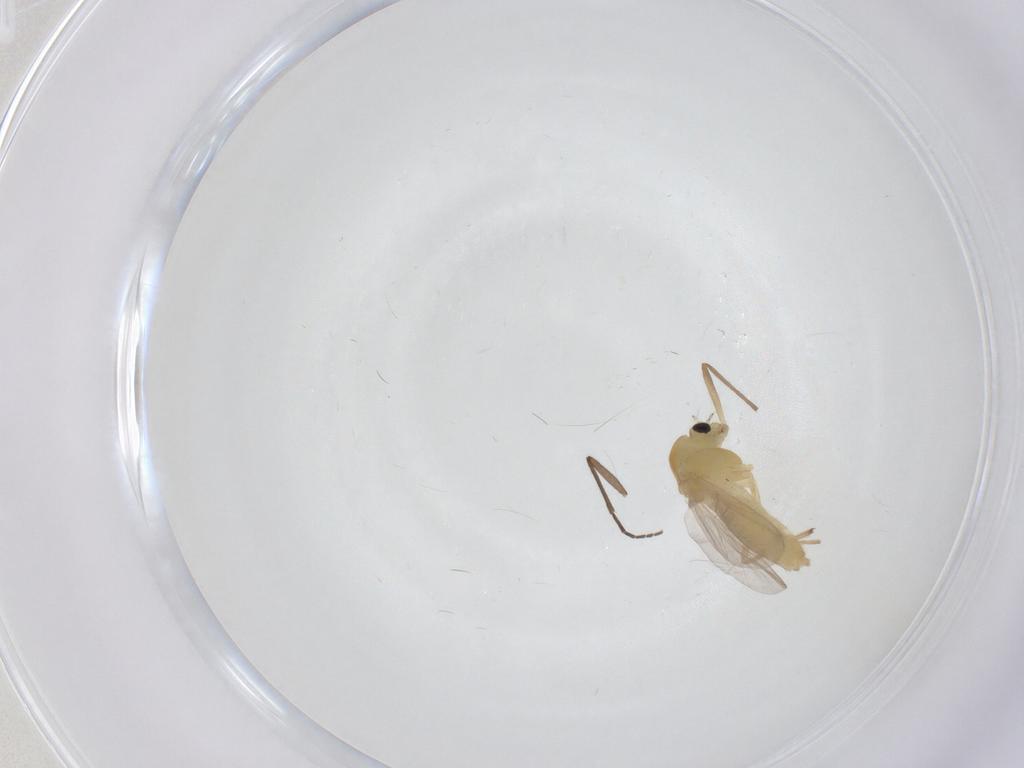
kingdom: Animalia
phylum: Arthropoda
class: Insecta
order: Diptera
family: Chironomidae
